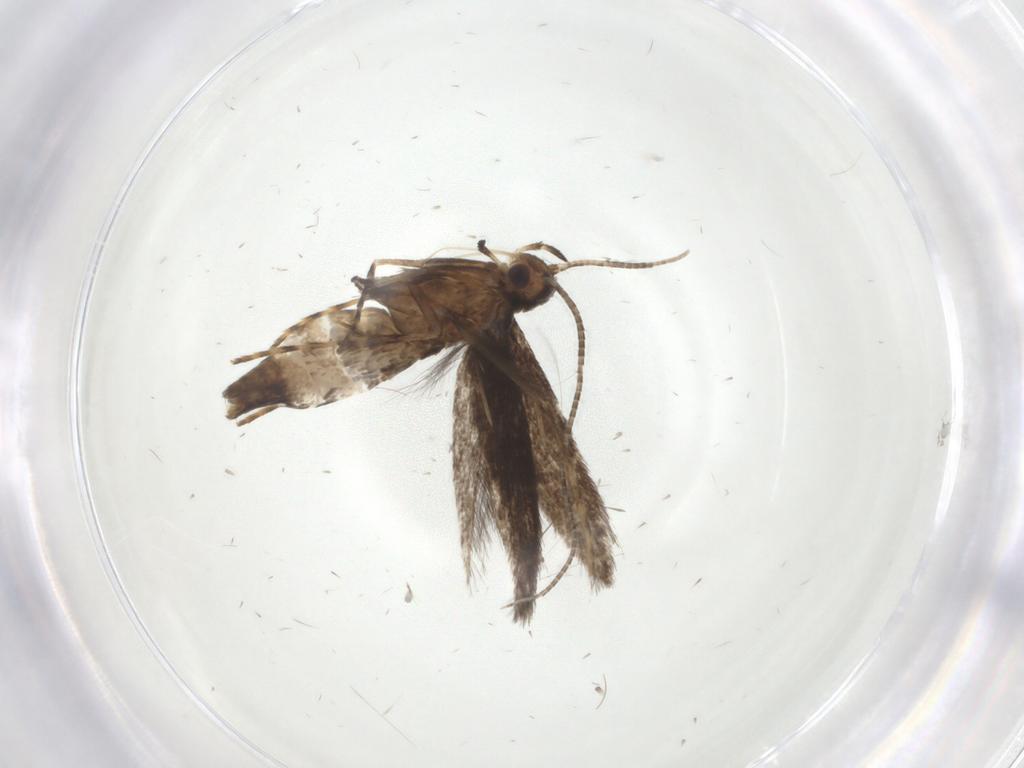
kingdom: Animalia
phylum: Arthropoda
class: Insecta
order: Lepidoptera
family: Gracillariidae
